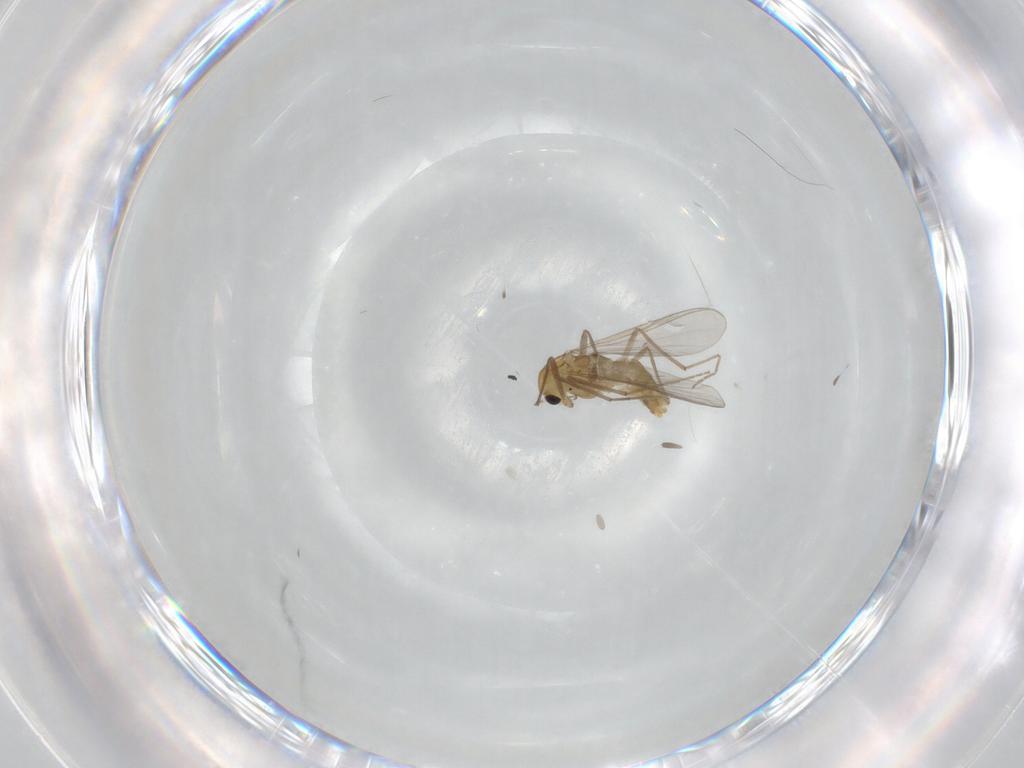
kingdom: Animalia
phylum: Arthropoda
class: Insecta
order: Diptera
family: Chironomidae
